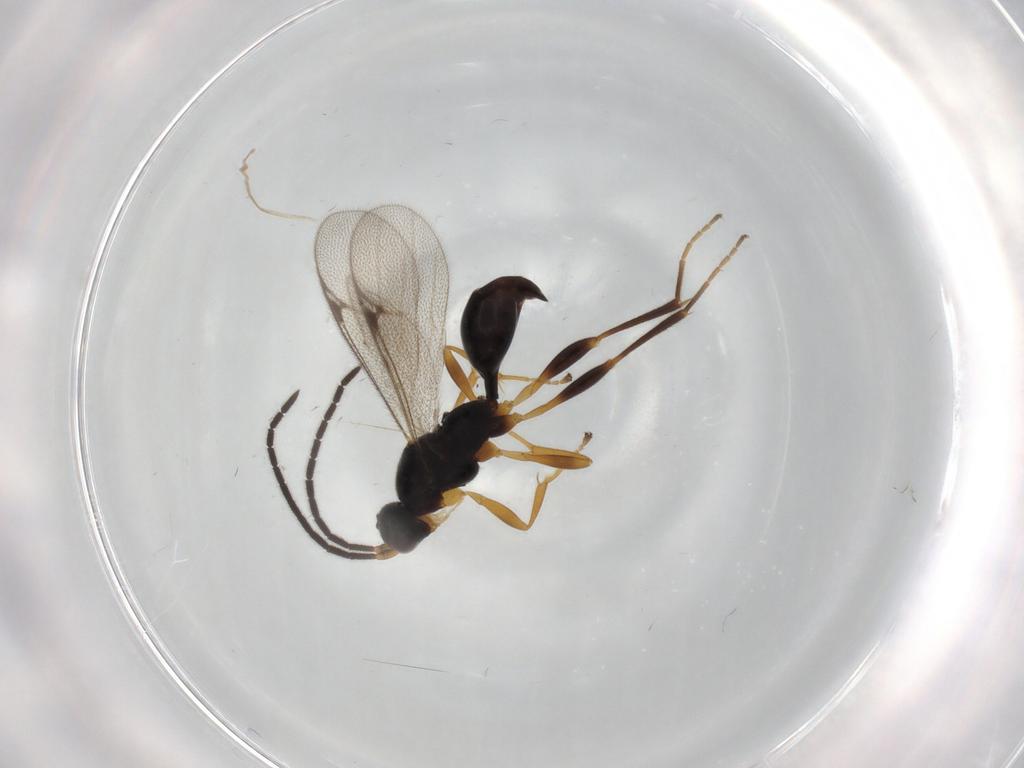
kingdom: Animalia
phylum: Arthropoda
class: Insecta
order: Hymenoptera
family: Proctotrupidae
